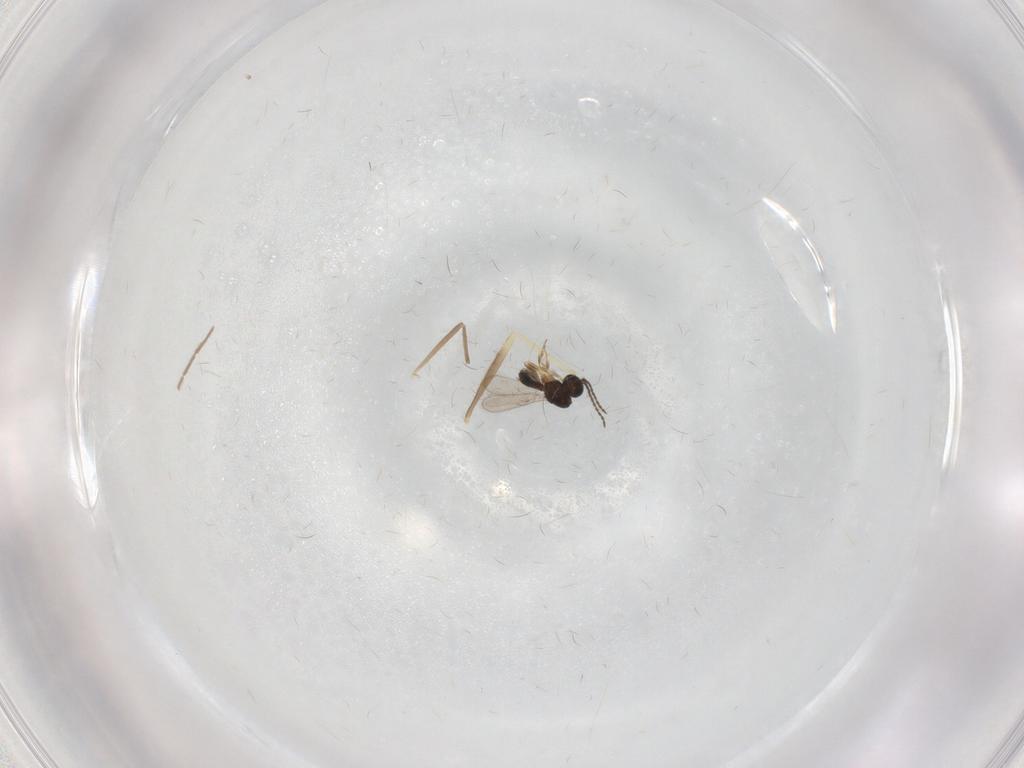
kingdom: Animalia
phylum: Arthropoda
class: Insecta
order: Hymenoptera
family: Scelionidae
